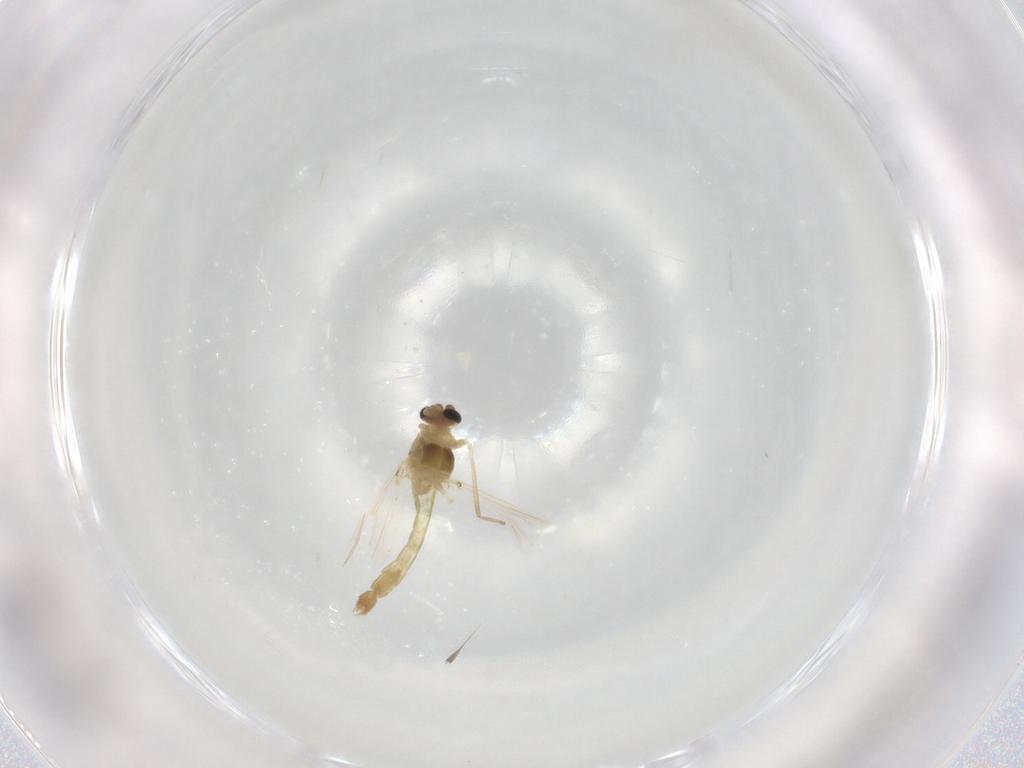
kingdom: Animalia
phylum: Arthropoda
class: Insecta
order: Diptera
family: Chironomidae
